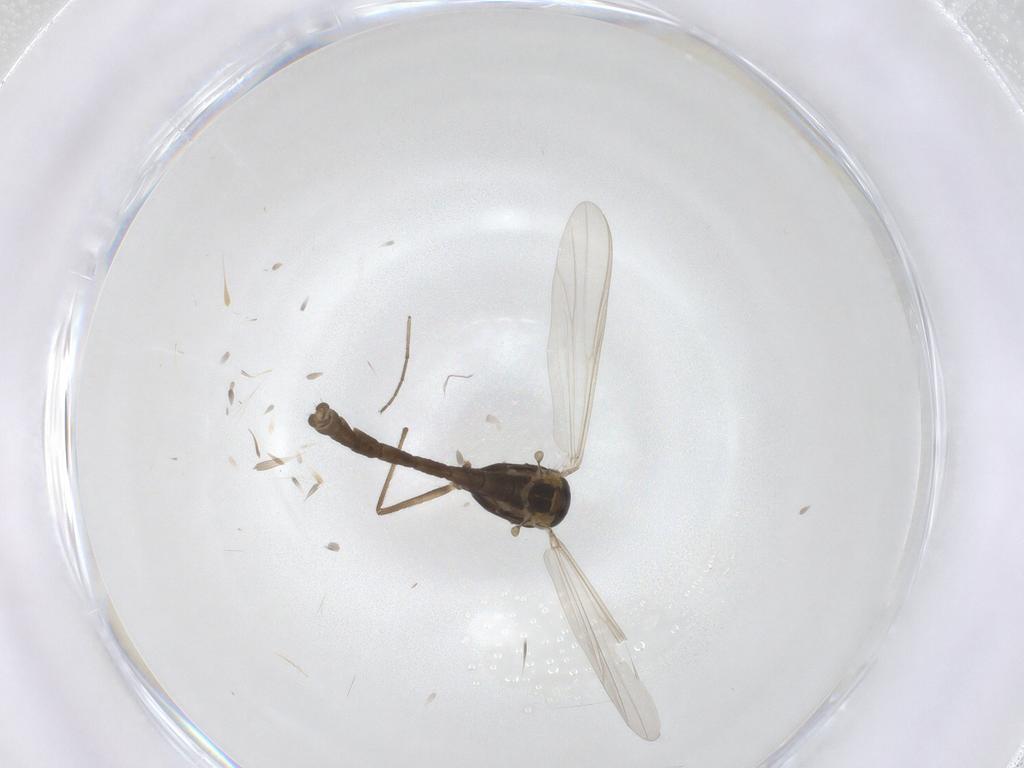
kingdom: Animalia
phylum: Arthropoda
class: Insecta
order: Diptera
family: Chironomidae
